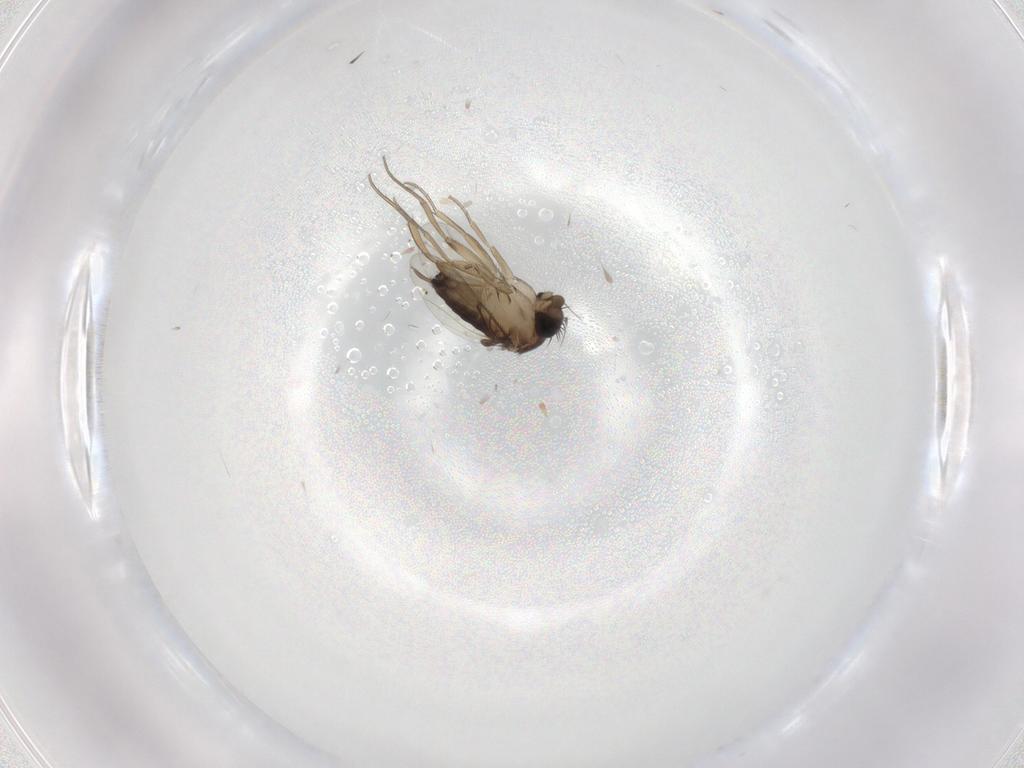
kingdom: Animalia
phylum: Arthropoda
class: Insecta
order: Diptera
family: Phoridae
